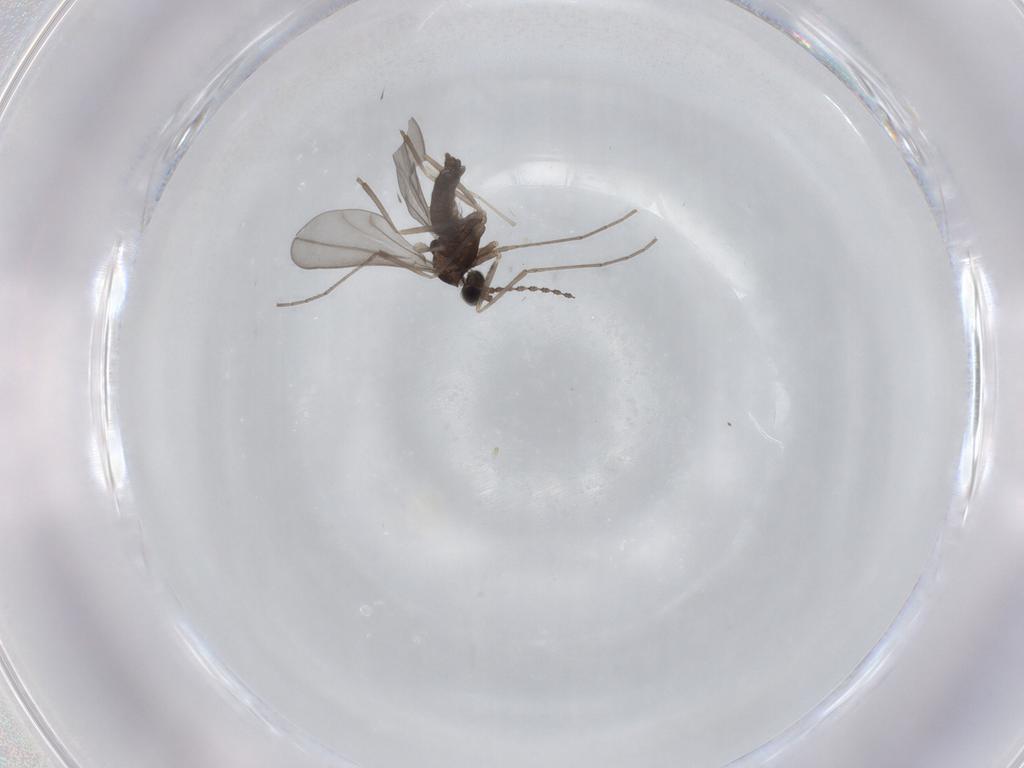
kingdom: Animalia
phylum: Arthropoda
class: Insecta
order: Diptera
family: Cecidomyiidae
